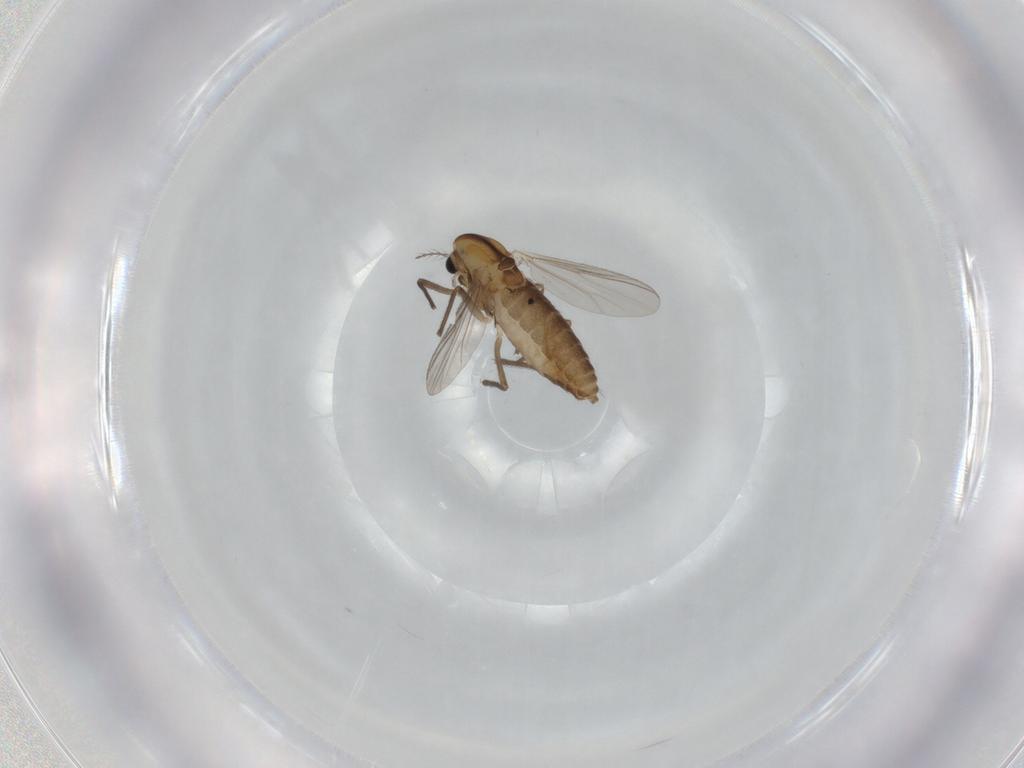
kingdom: Animalia
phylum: Arthropoda
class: Insecta
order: Diptera
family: Chironomidae
